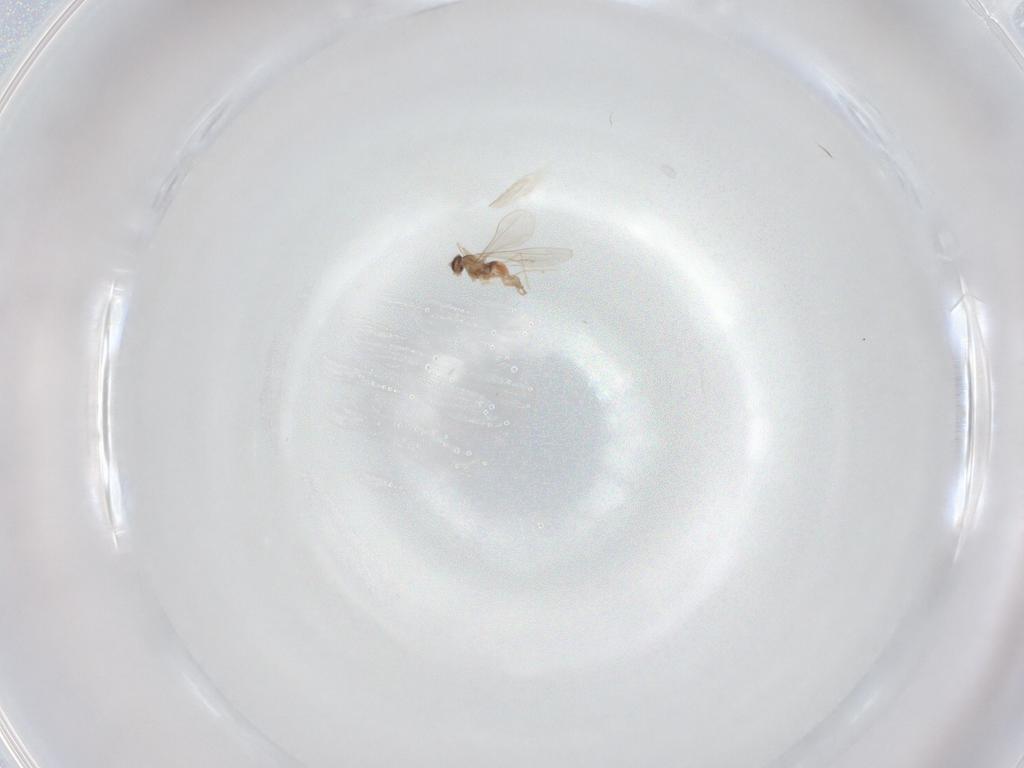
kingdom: Animalia
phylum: Arthropoda
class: Insecta
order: Diptera
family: Cecidomyiidae
